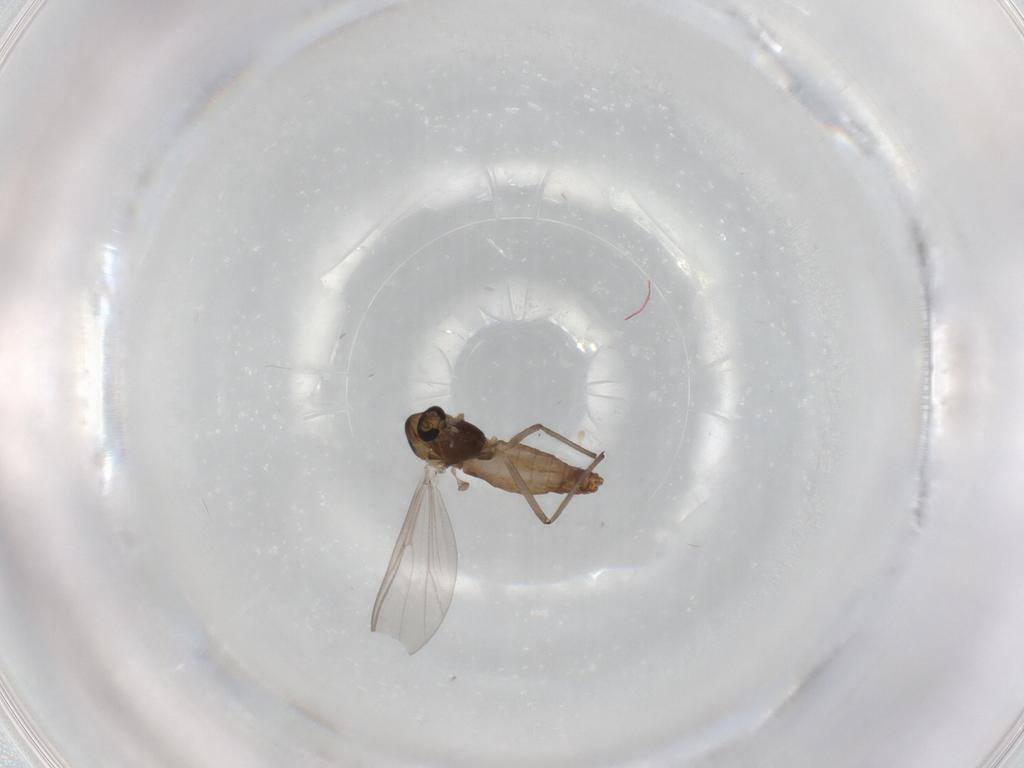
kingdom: Animalia
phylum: Arthropoda
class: Insecta
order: Diptera
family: Chironomidae
